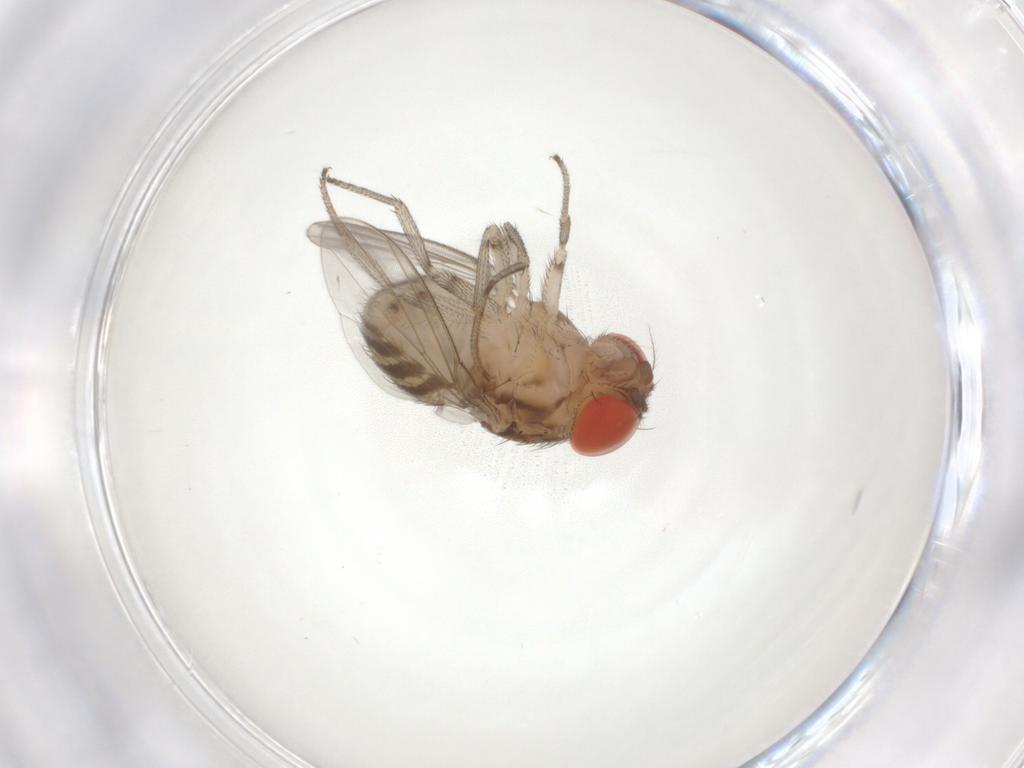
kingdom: Animalia
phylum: Arthropoda
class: Insecta
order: Diptera
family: Drosophilidae
